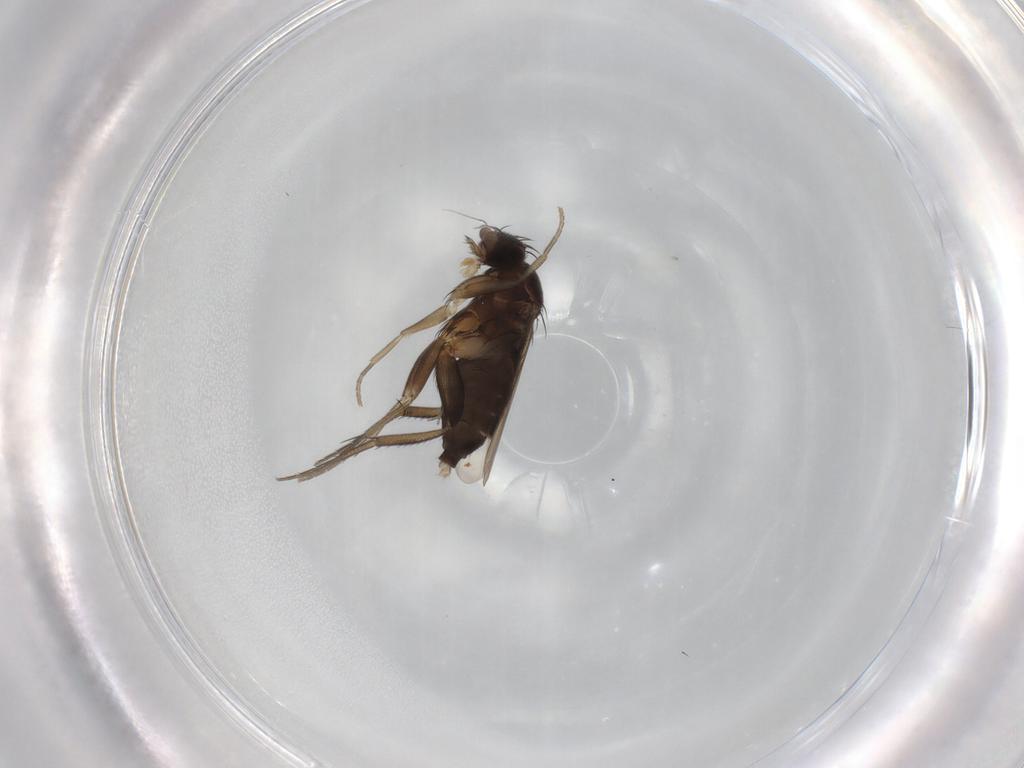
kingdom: Animalia
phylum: Arthropoda
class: Insecta
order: Diptera
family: Phoridae
